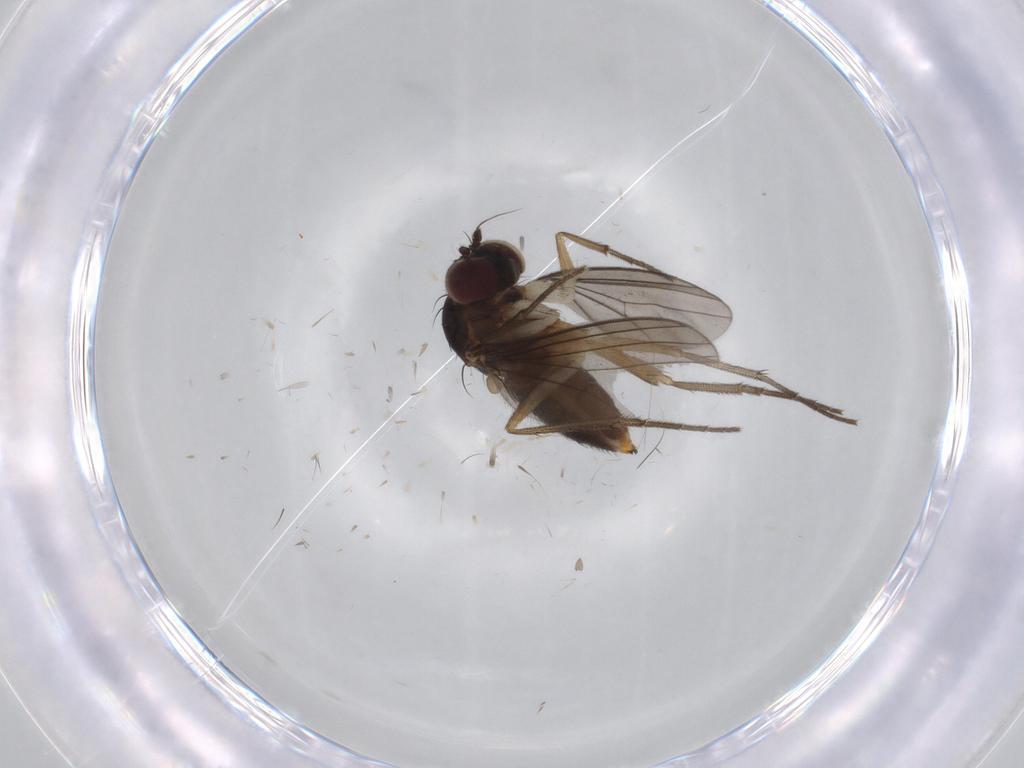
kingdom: Animalia
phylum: Arthropoda
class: Insecta
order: Diptera
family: Dolichopodidae
